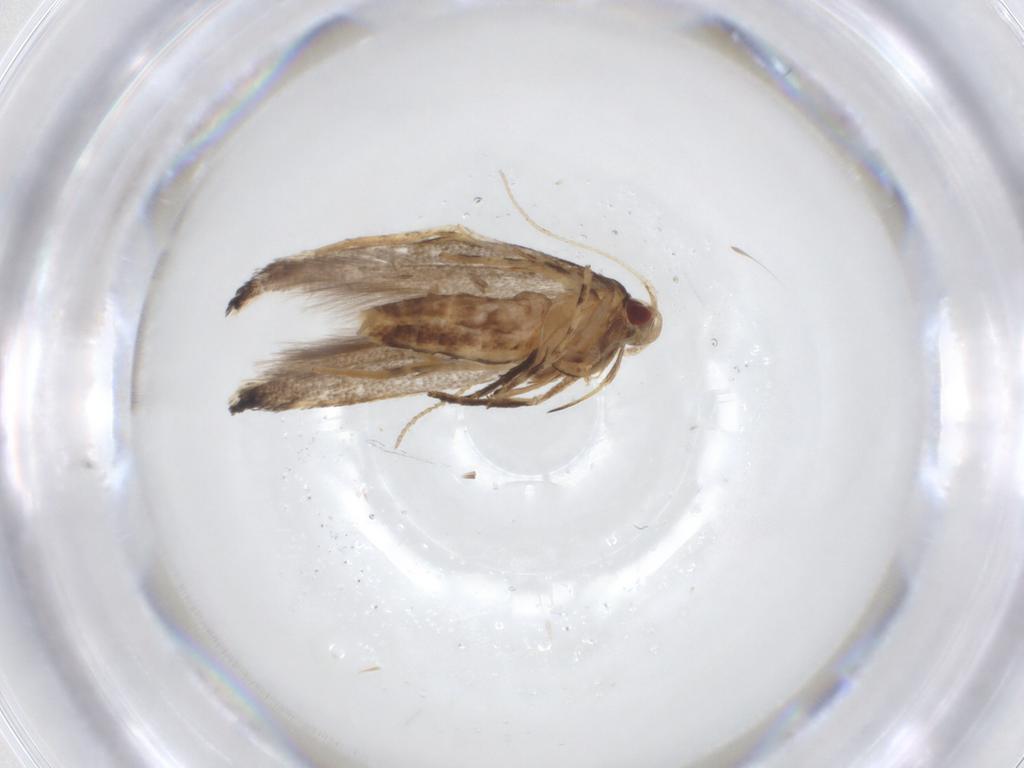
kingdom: Animalia
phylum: Arthropoda
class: Insecta
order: Lepidoptera
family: Cosmopterigidae
